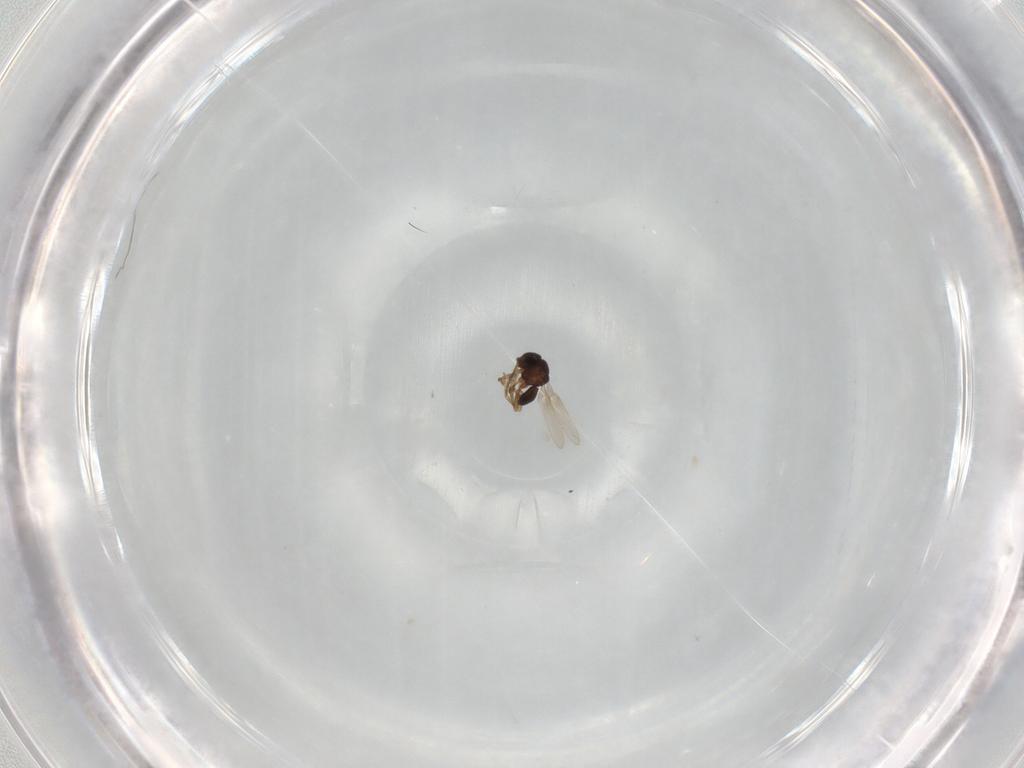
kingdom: Animalia
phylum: Arthropoda
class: Insecta
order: Hymenoptera
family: Scelionidae
